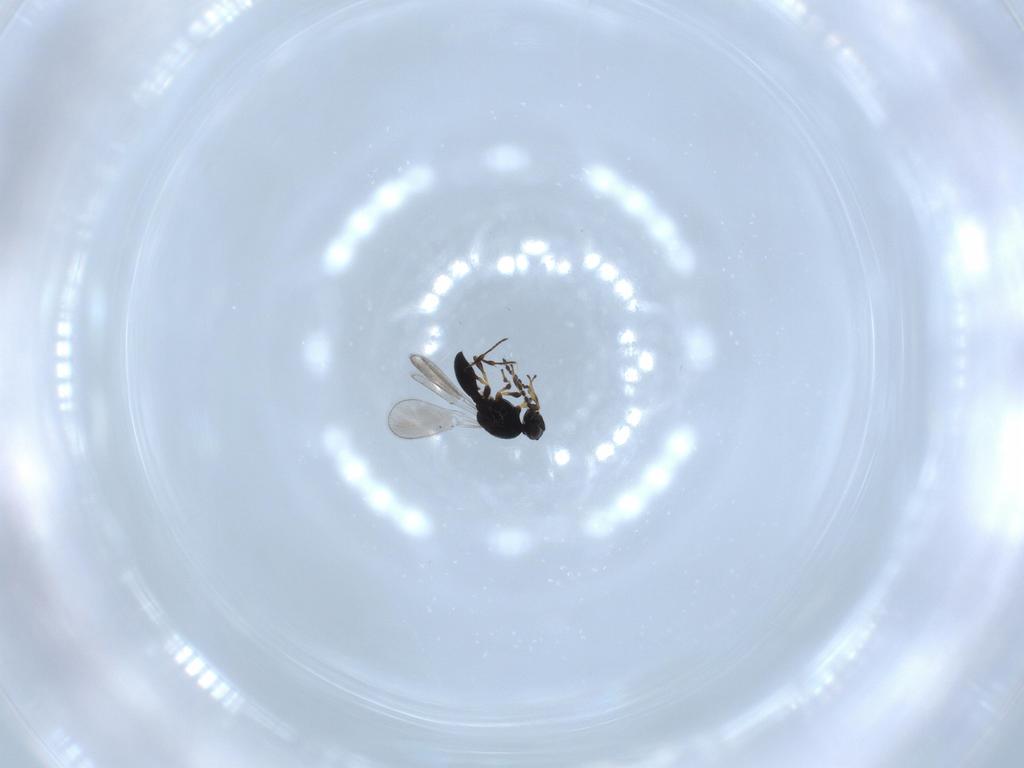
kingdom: Animalia
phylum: Arthropoda
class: Insecta
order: Hymenoptera
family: Platygastridae
